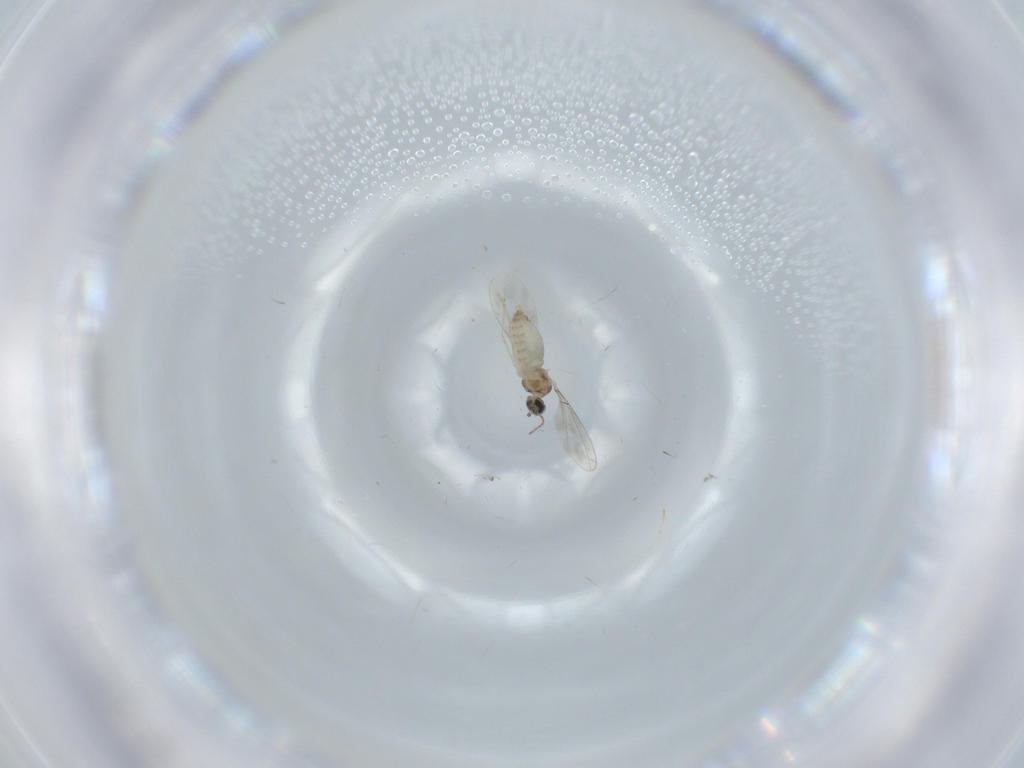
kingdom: Animalia
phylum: Arthropoda
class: Insecta
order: Diptera
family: Cecidomyiidae
